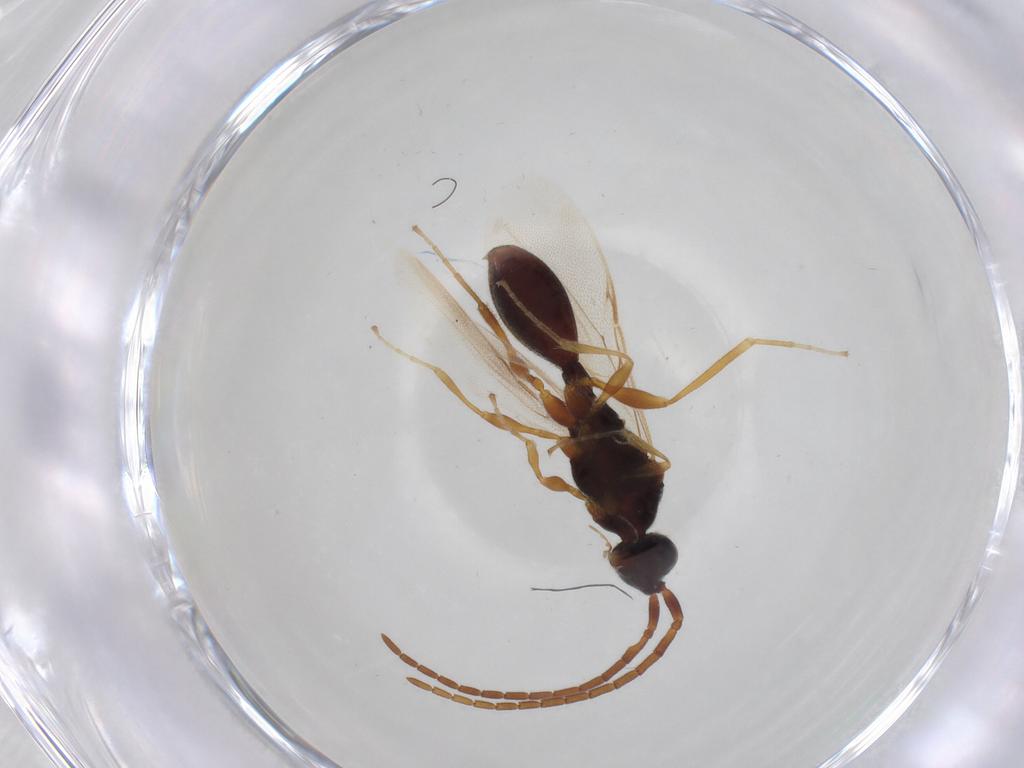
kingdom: Animalia
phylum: Arthropoda
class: Insecta
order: Hymenoptera
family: Diapriidae
